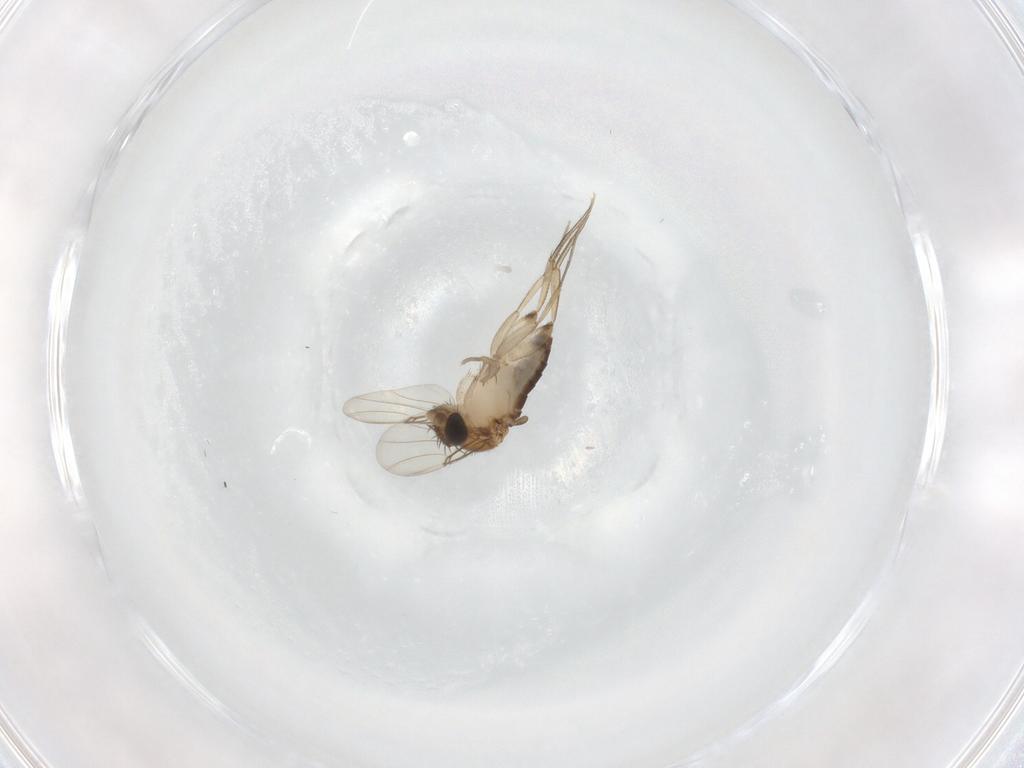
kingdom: Animalia
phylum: Arthropoda
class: Insecta
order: Diptera
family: Phoridae
